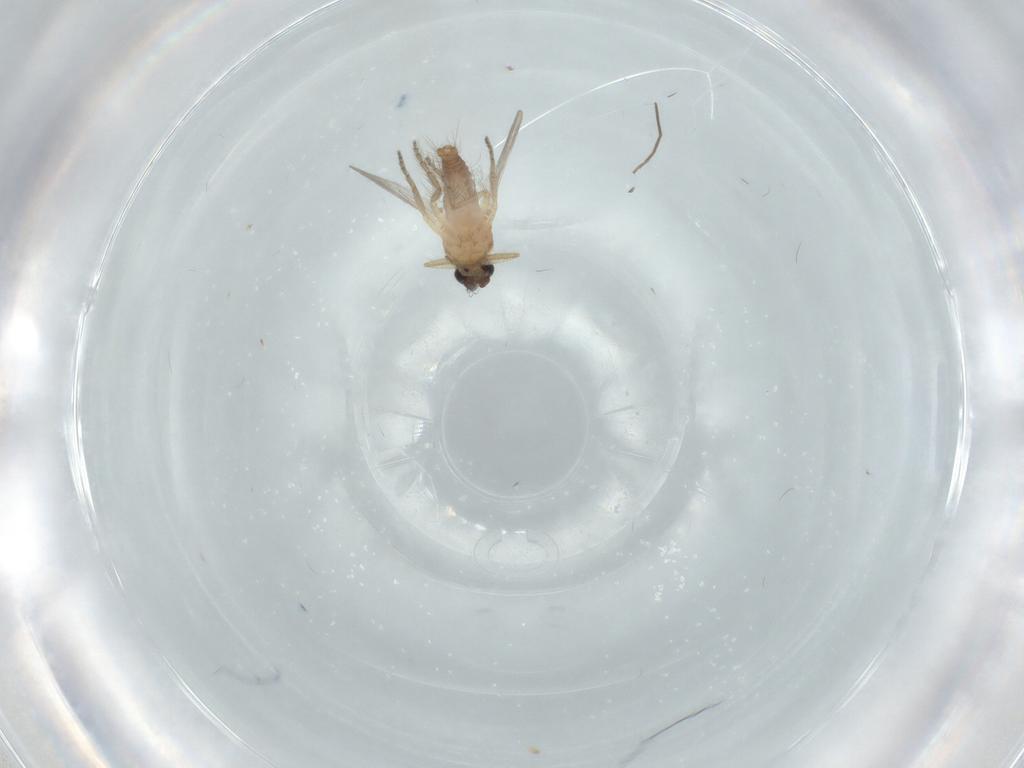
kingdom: Animalia
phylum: Arthropoda
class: Insecta
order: Diptera
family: Ceratopogonidae
